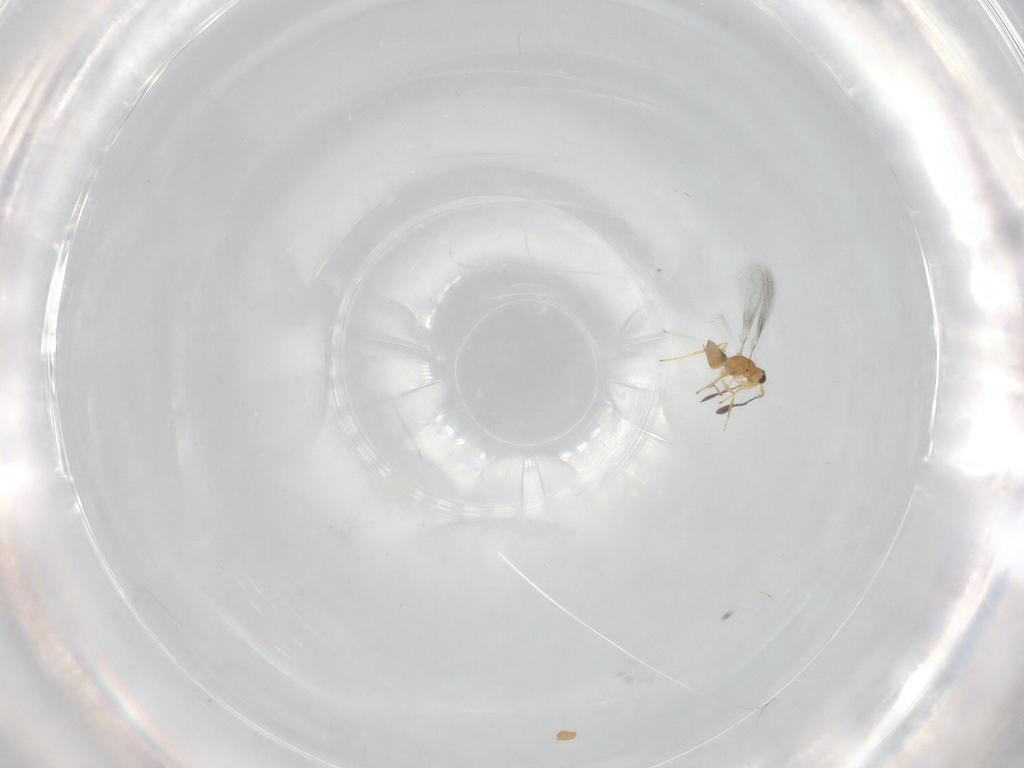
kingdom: Animalia
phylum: Arthropoda
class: Insecta
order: Hymenoptera
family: Mymaridae
